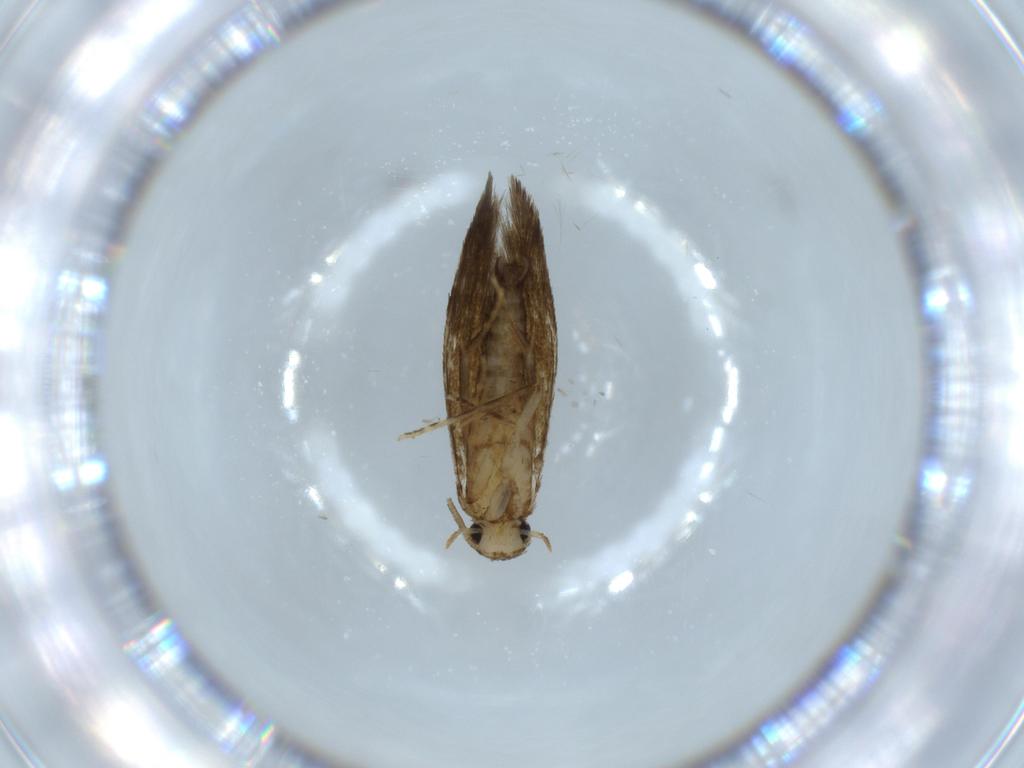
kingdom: Animalia
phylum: Arthropoda
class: Insecta
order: Lepidoptera
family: Tineidae
